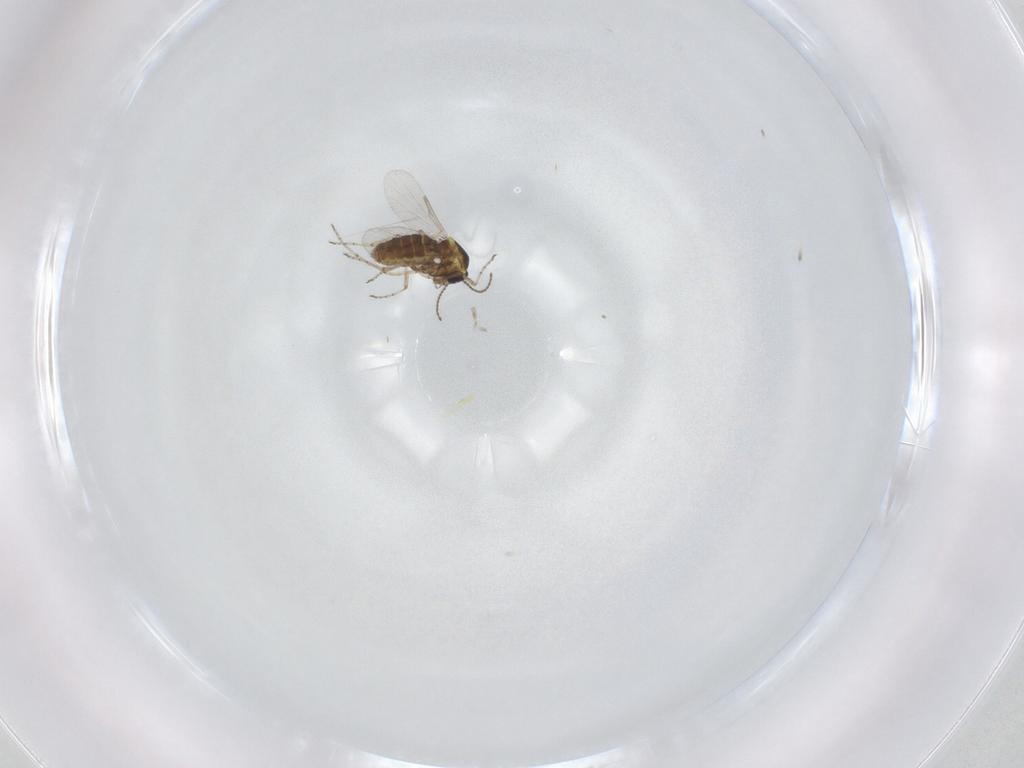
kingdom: Animalia
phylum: Arthropoda
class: Insecta
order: Diptera
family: Ceratopogonidae
